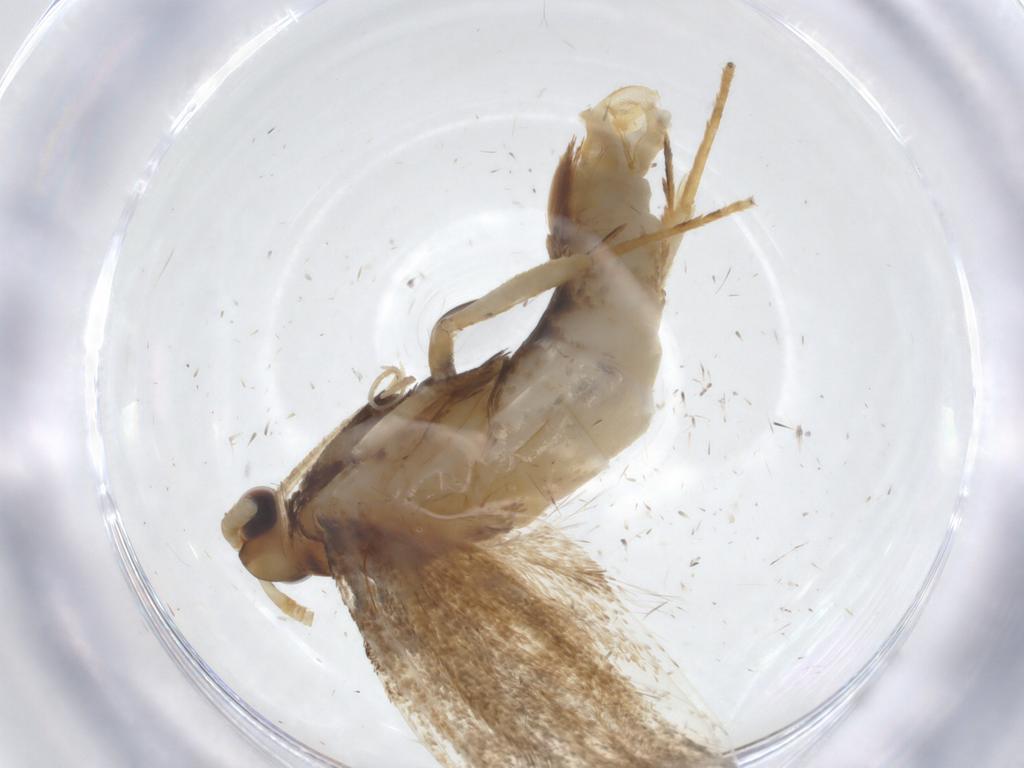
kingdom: Animalia
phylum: Arthropoda
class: Insecta
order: Lepidoptera
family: Lecithoceridae
